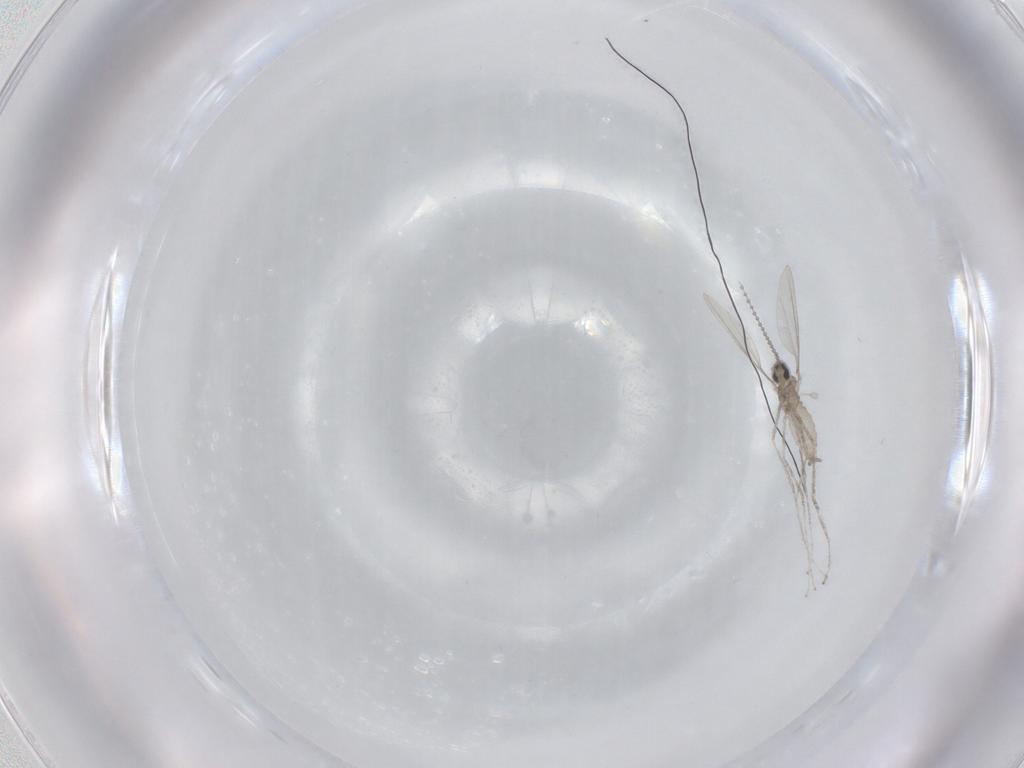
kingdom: Animalia
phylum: Arthropoda
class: Insecta
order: Diptera
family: Cecidomyiidae
